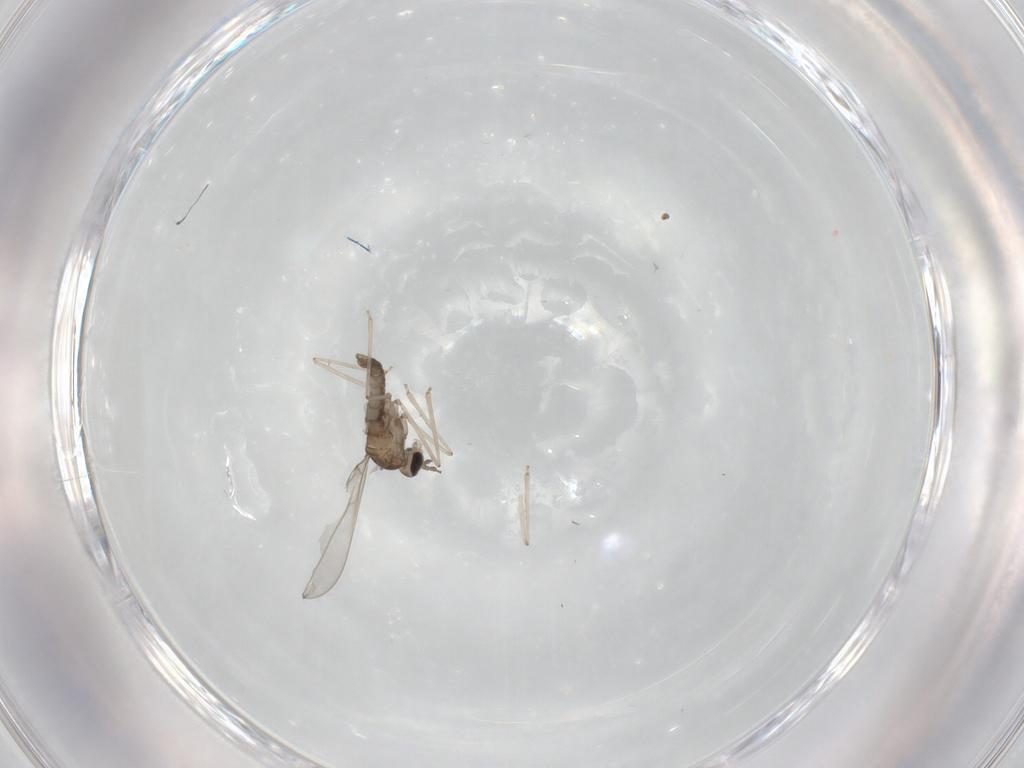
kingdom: Animalia
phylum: Arthropoda
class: Insecta
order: Diptera
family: Cecidomyiidae
